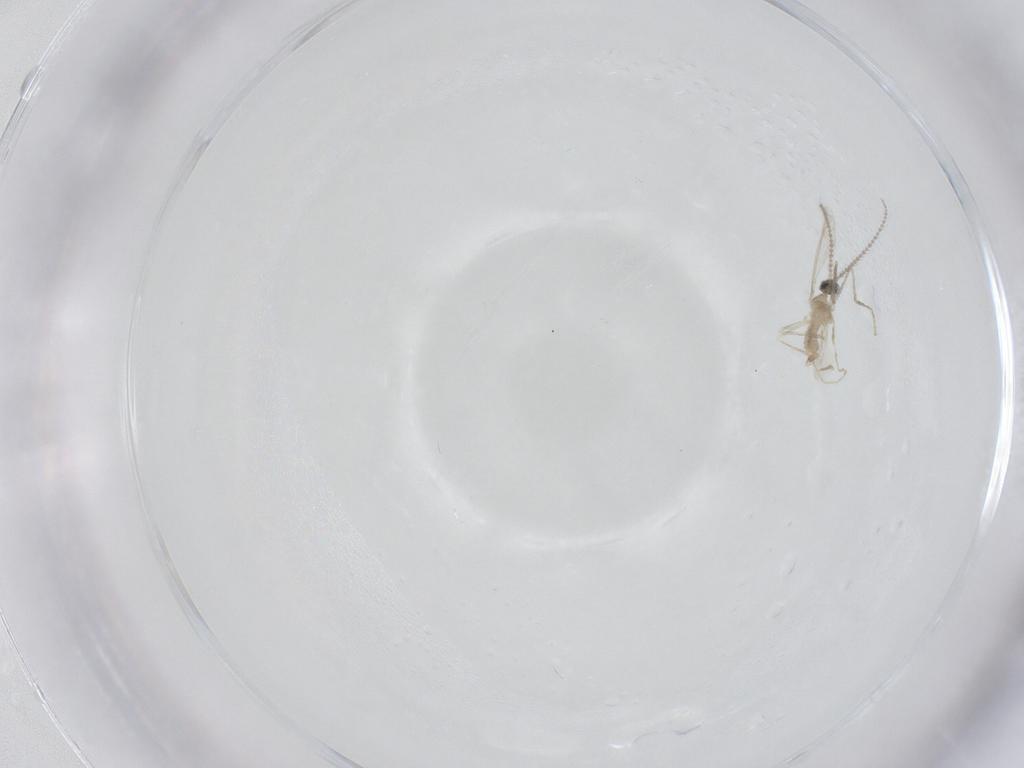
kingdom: Animalia
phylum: Arthropoda
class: Insecta
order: Diptera
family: Cecidomyiidae
